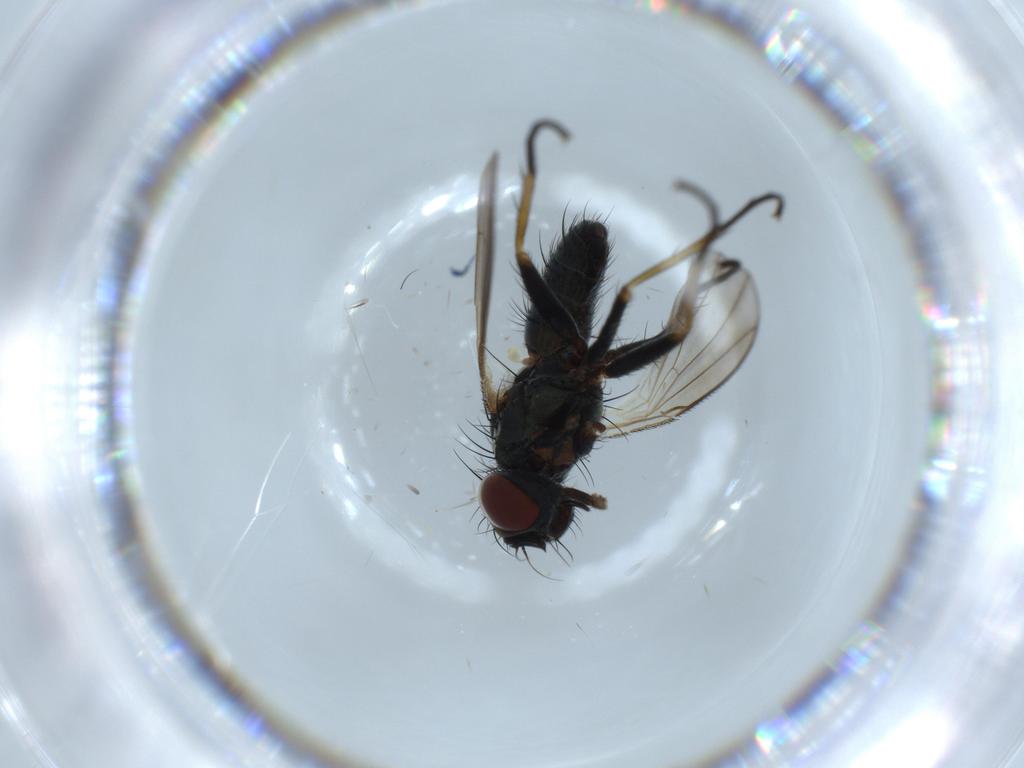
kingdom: Animalia
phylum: Arthropoda
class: Insecta
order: Diptera
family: Muscidae
